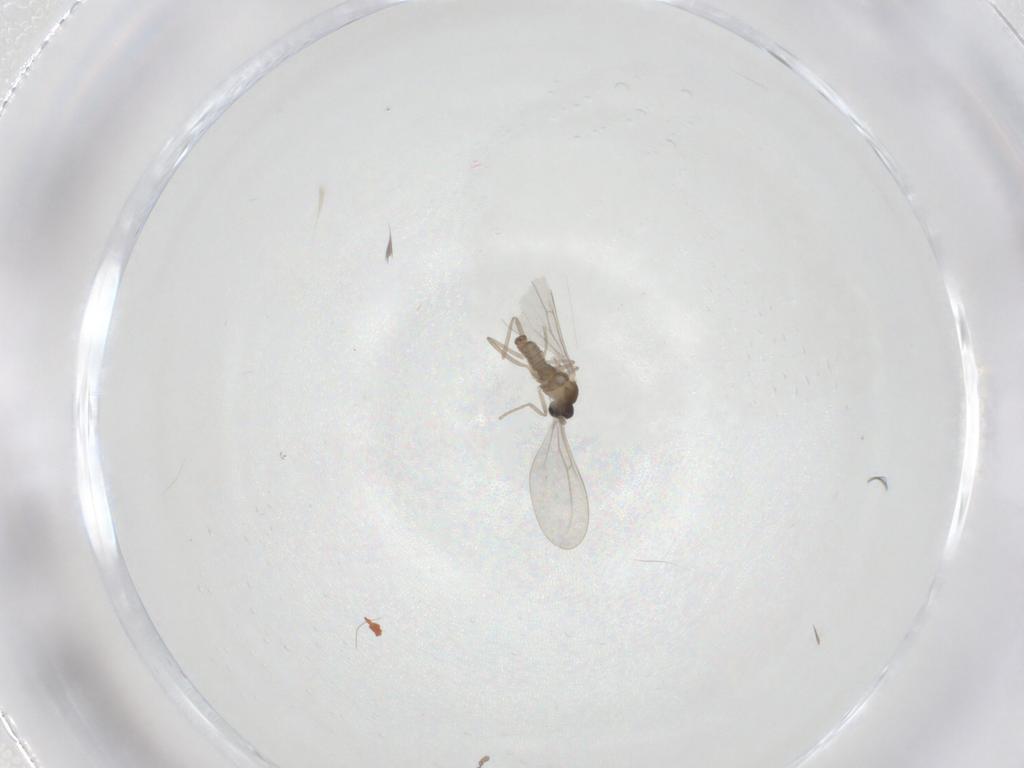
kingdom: Animalia
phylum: Arthropoda
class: Insecta
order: Diptera
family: Cecidomyiidae
